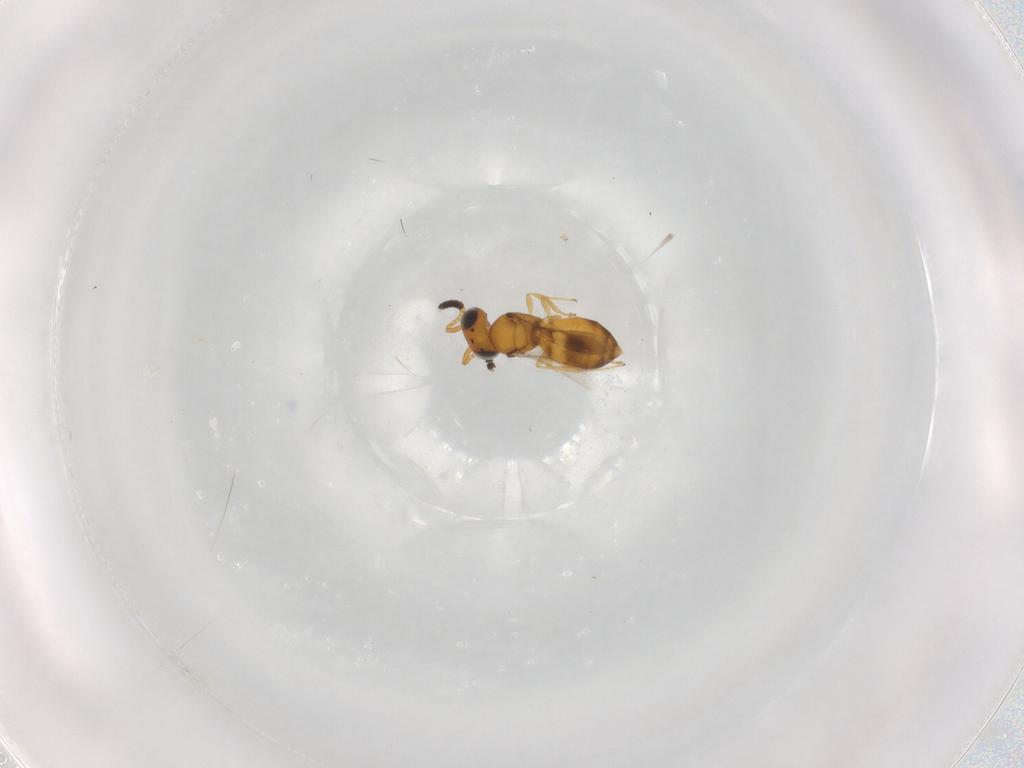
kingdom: Animalia
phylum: Arthropoda
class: Insecta
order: Hymenoptera
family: Scelionidae
